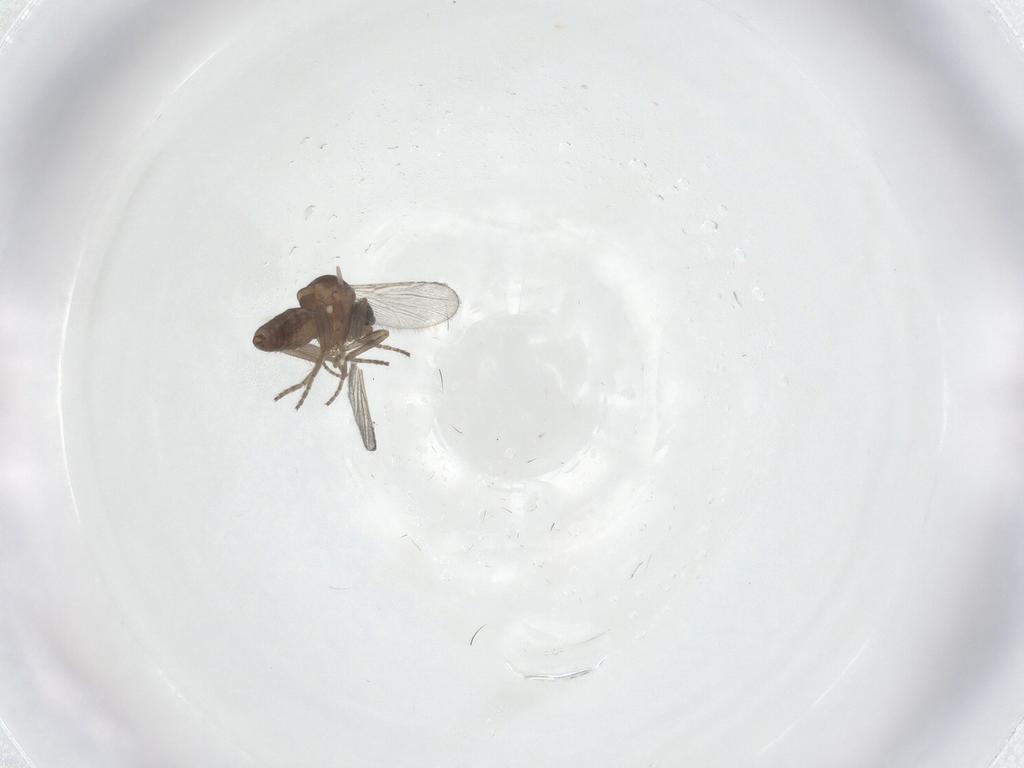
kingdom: Animalia
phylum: Arthropoda
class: Insecta
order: Diptera
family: Ceratopogonidae
